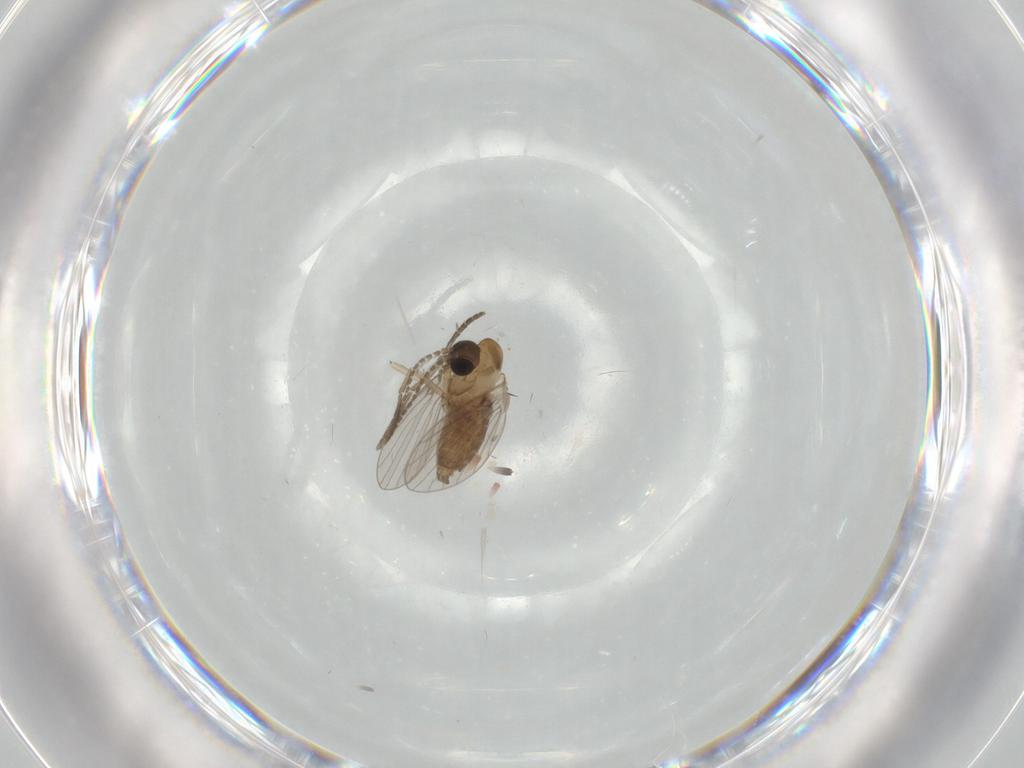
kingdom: Animalia
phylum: Arthropoda
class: Insecta
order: Diptera
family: Psychodidae
